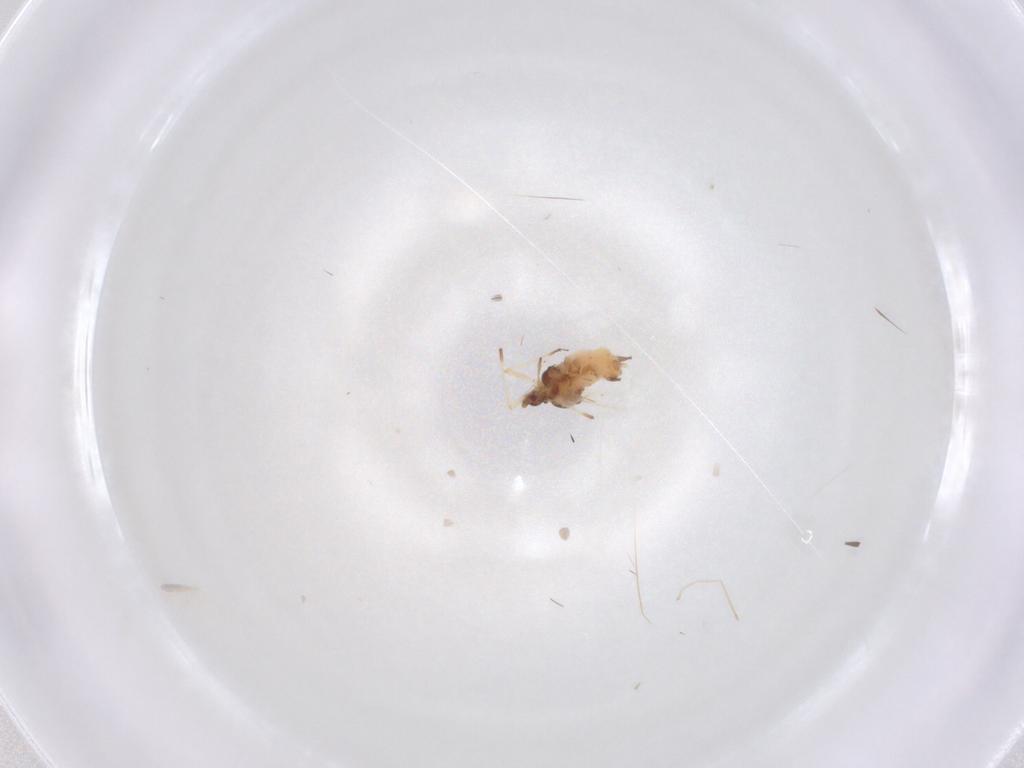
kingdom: Animalia
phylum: Arthropoda
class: Insecta
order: Hemiptera
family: Aphididae
